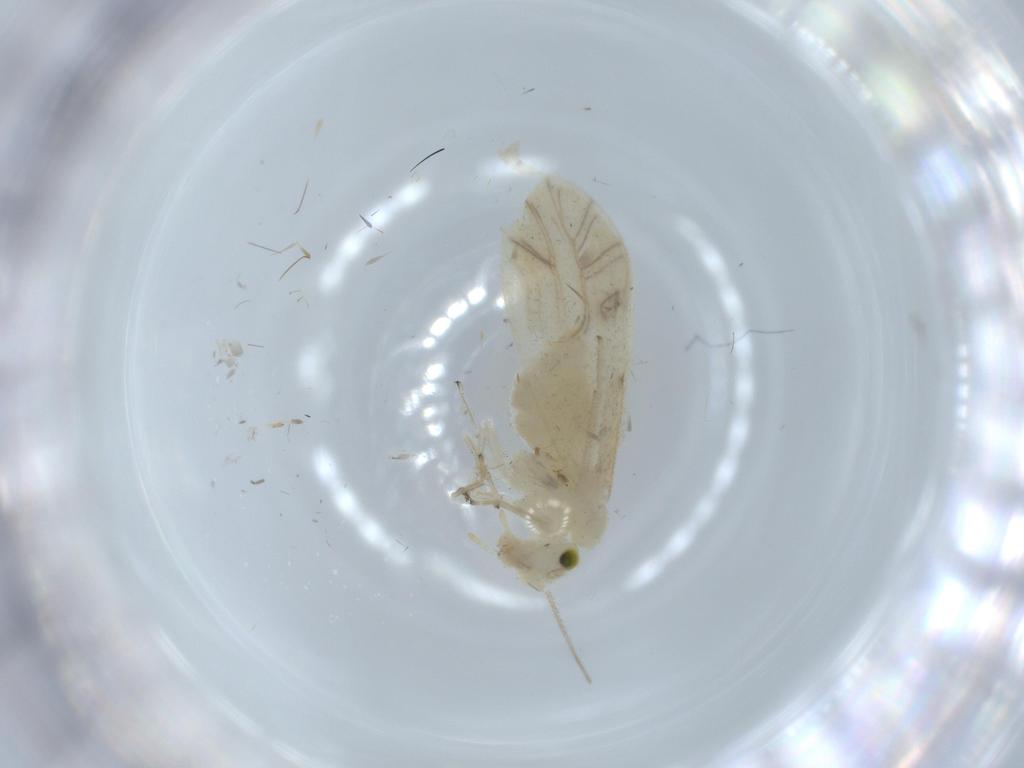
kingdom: Animalia
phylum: Arthropoda
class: Insecta
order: Psocodea
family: Caeciliusidae
